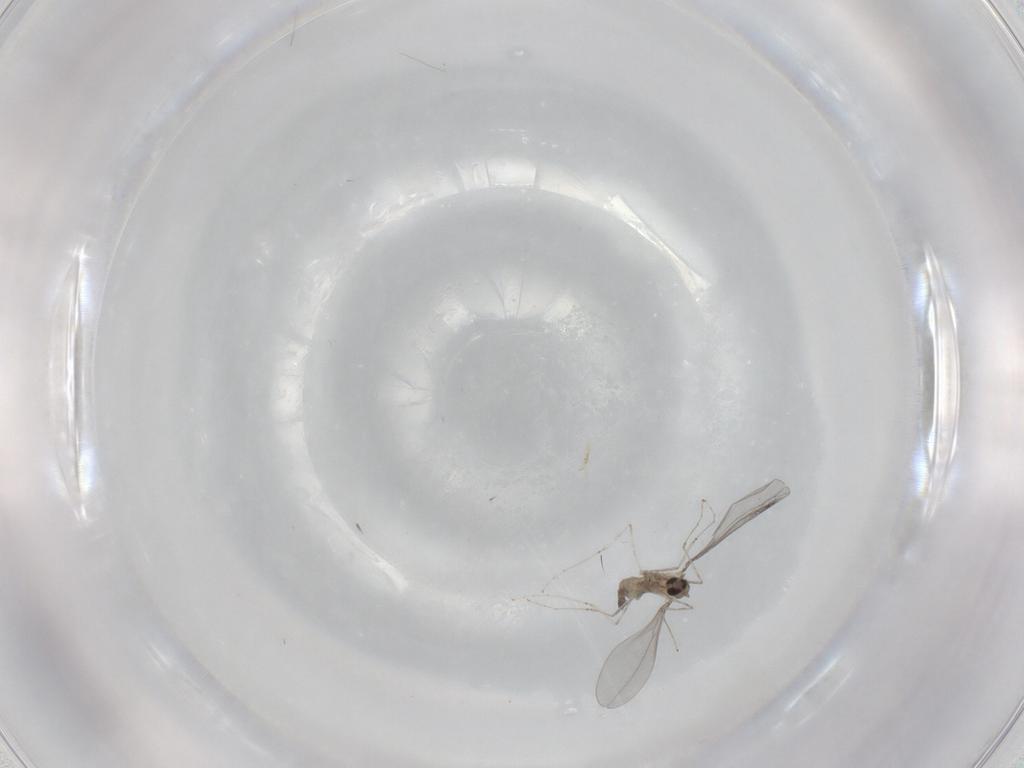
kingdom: Animalia
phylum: Arthropoda
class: Insecta
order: Diptera
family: Cecidomyiidae
